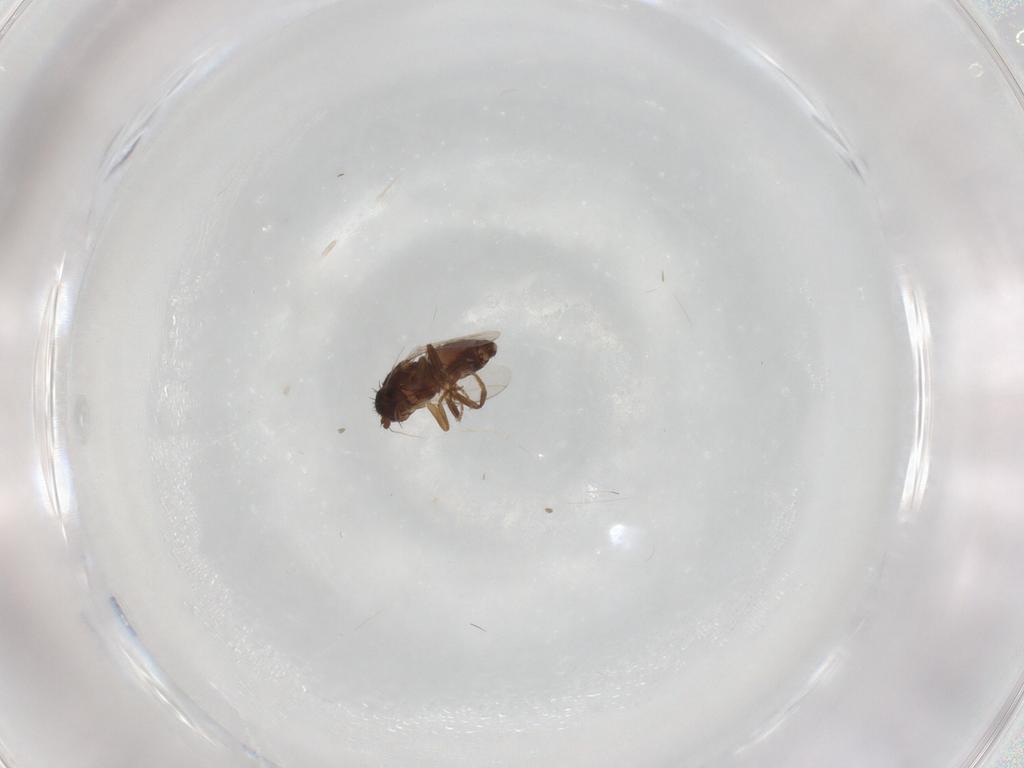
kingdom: Animalia
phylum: Arthropoda
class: Insecta
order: Diptera
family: Sphaeroceridae
